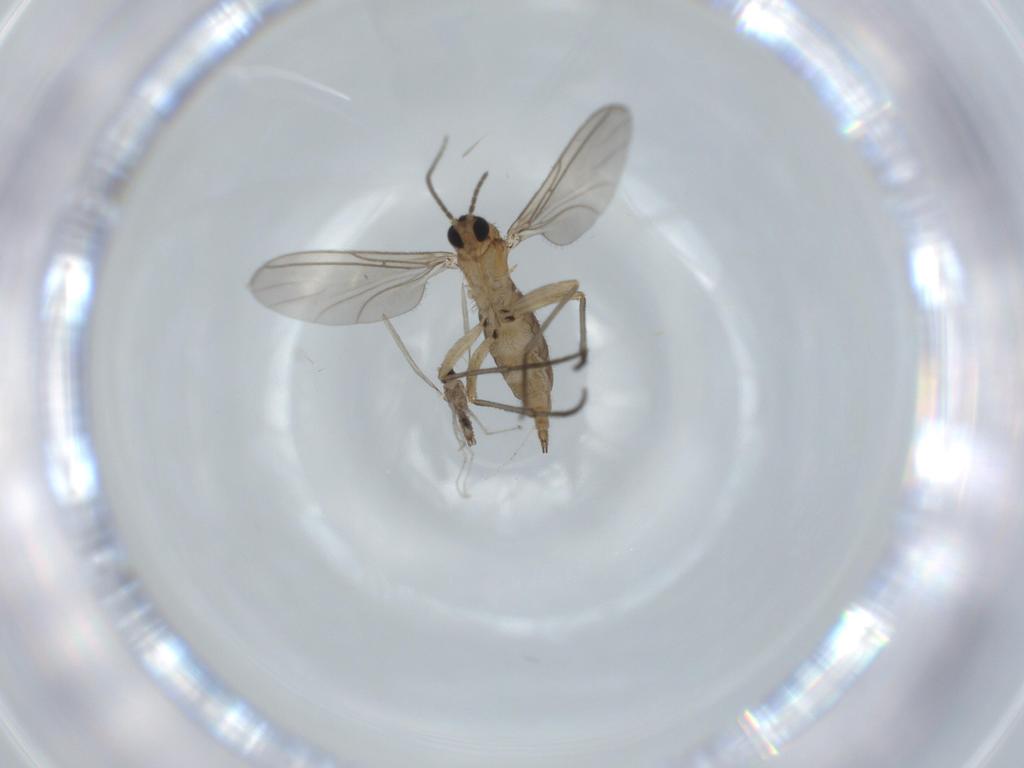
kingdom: Animalia
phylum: Arthropoda
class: Insecta
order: Diptera
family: Cecidomyiidae
